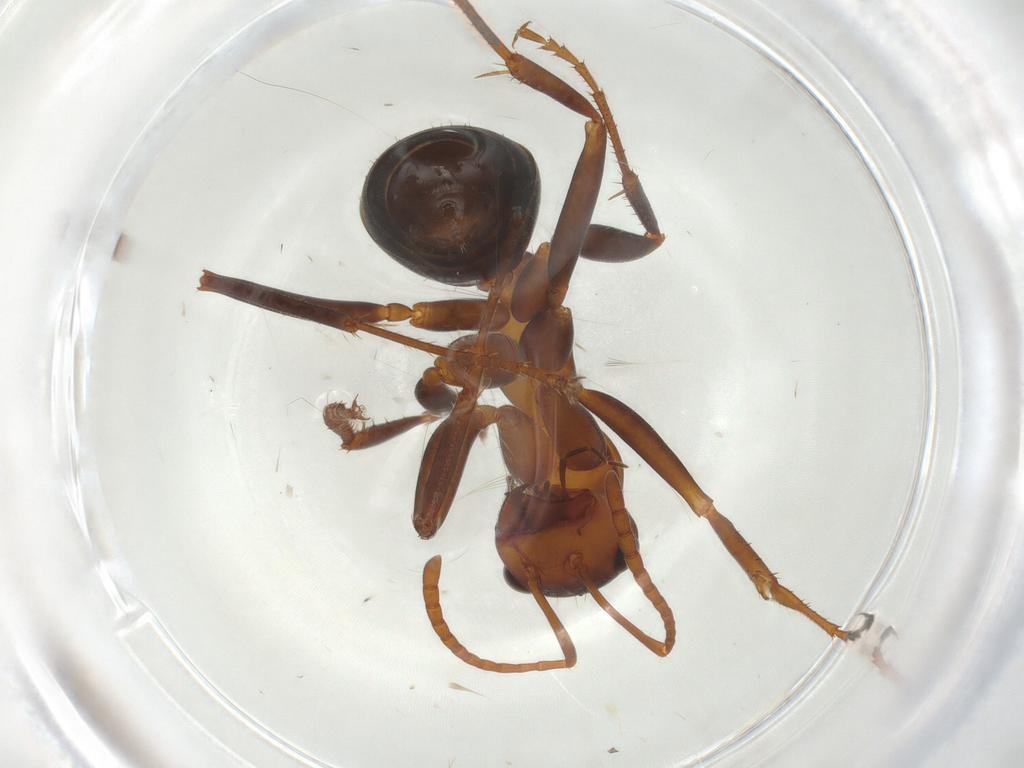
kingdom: Animalia
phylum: Arthropoda
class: Insecta
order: Hymenoptera
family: Formicidae
